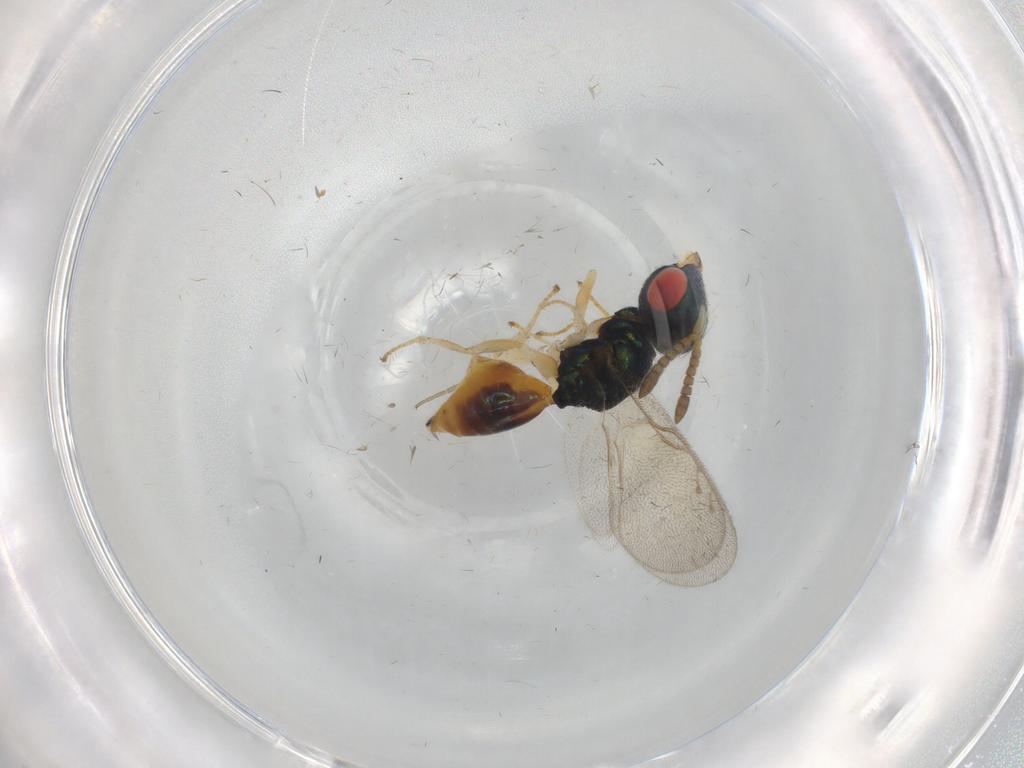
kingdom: Animalia
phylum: Arthropoda
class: Insecta
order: Hymenoptera
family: Pteromalidae
